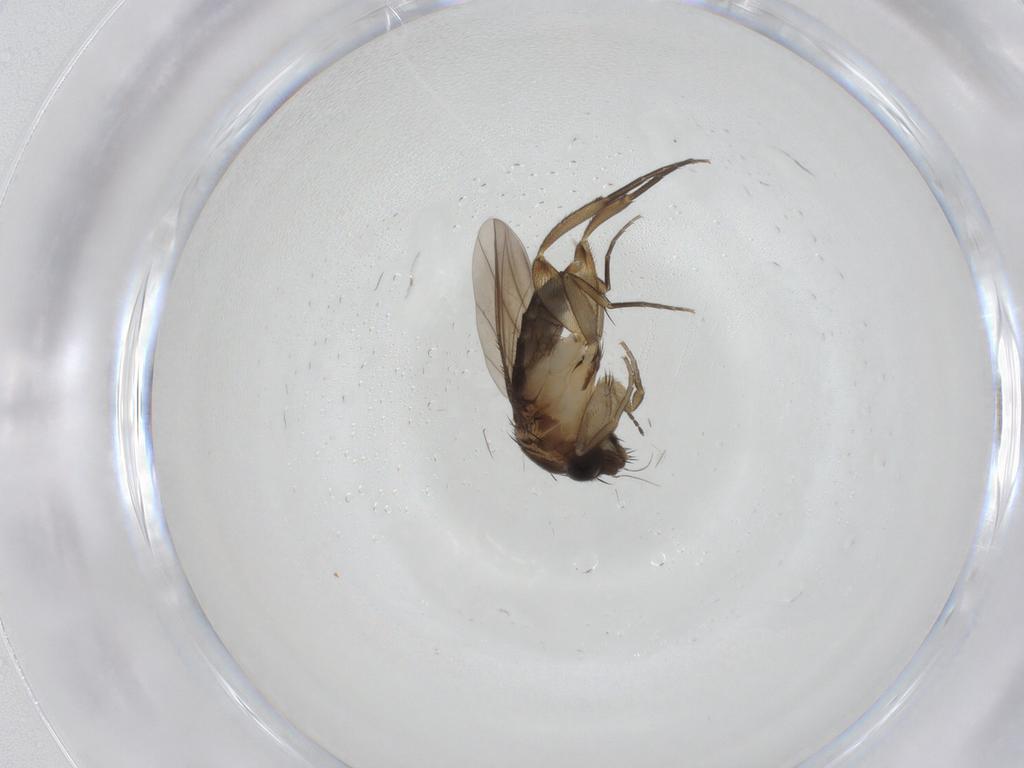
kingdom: Animalia
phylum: Arthropoda
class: Insecta
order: Diptera
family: Phoridae
